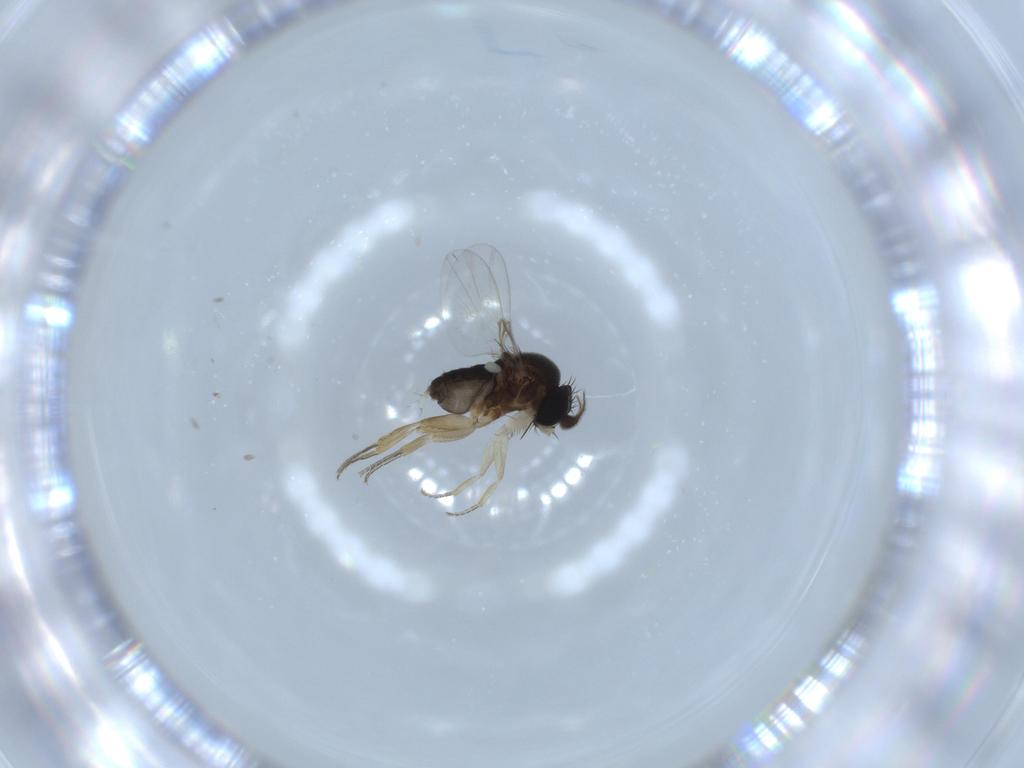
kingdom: Animalia
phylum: Arthropoda
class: Insecta
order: Diptera
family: Phoridae
